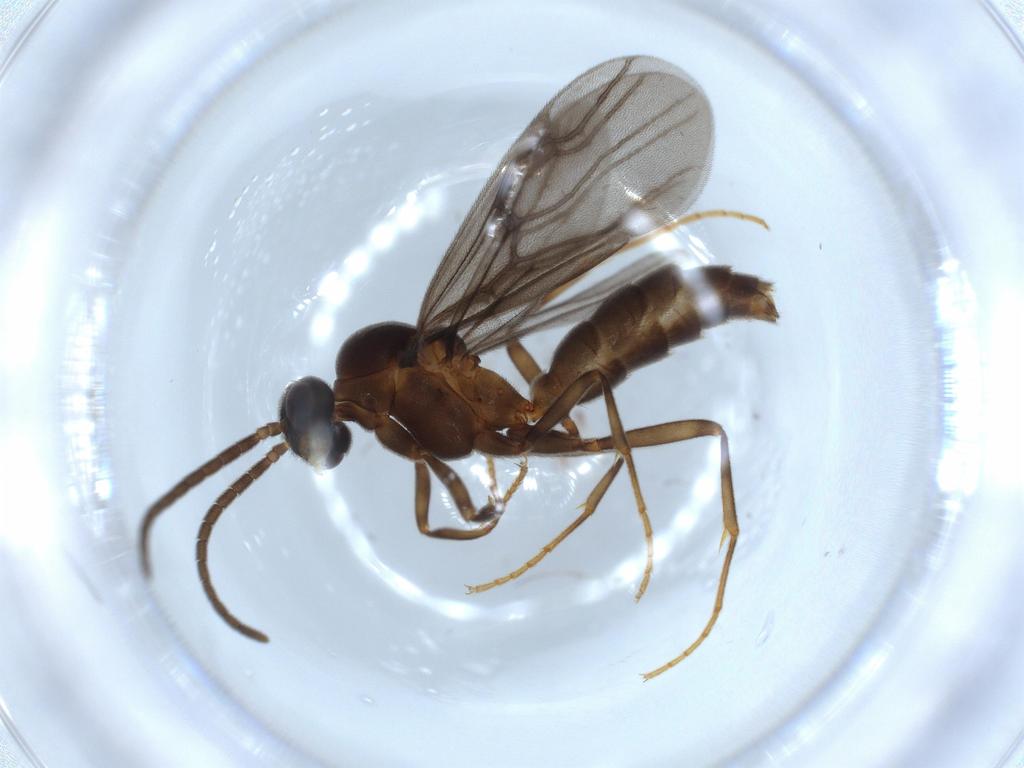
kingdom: Animalia
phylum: Arthropoda
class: Insecta
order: Hymenoptera
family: Formicidae
